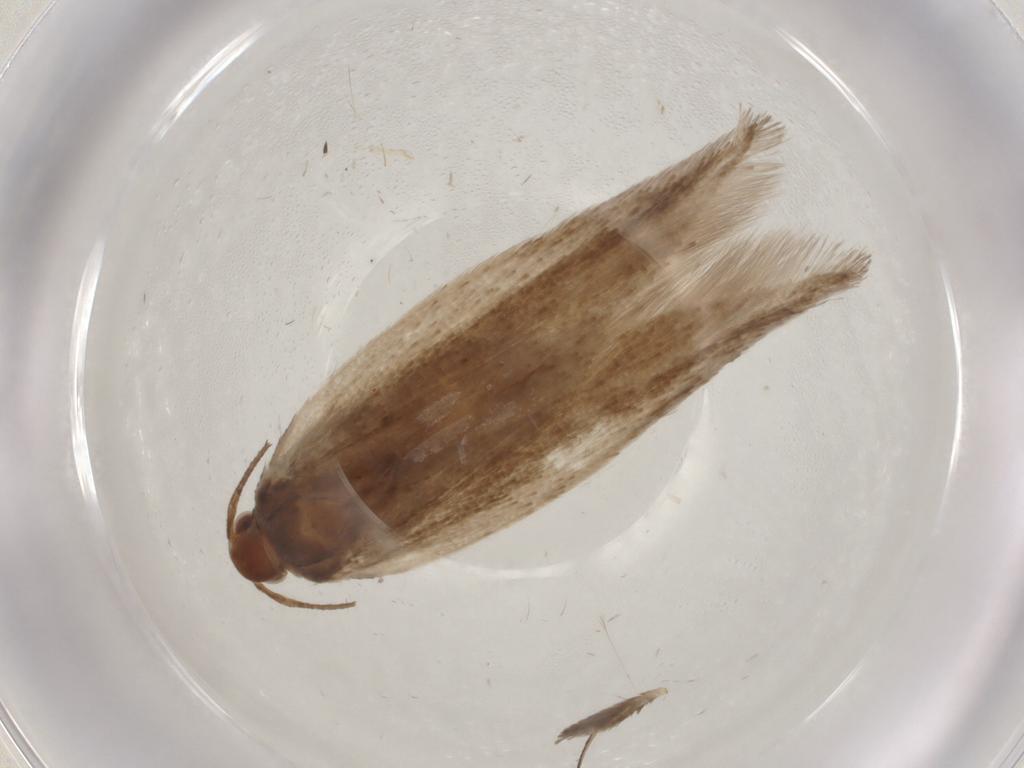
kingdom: Animalia
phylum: Arthropoda
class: Insecta
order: Lepidoptera
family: Gelechiidae
